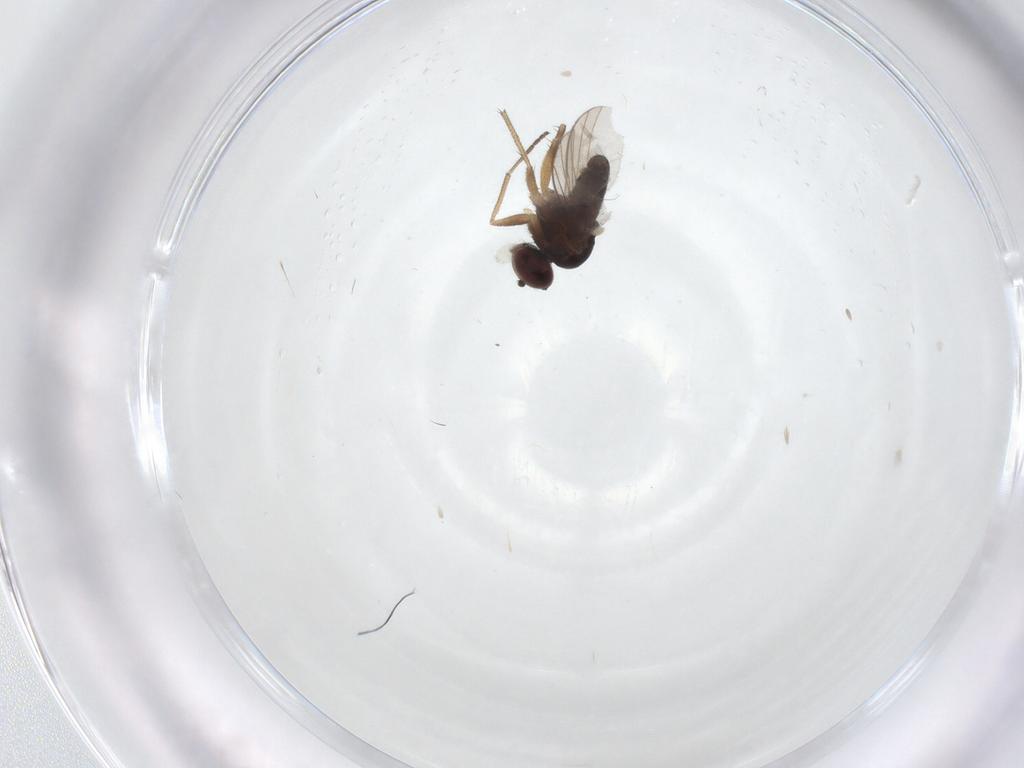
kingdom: Animalia
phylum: Arthropoda
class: Insecta
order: Diptera
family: Dolichopodidae
